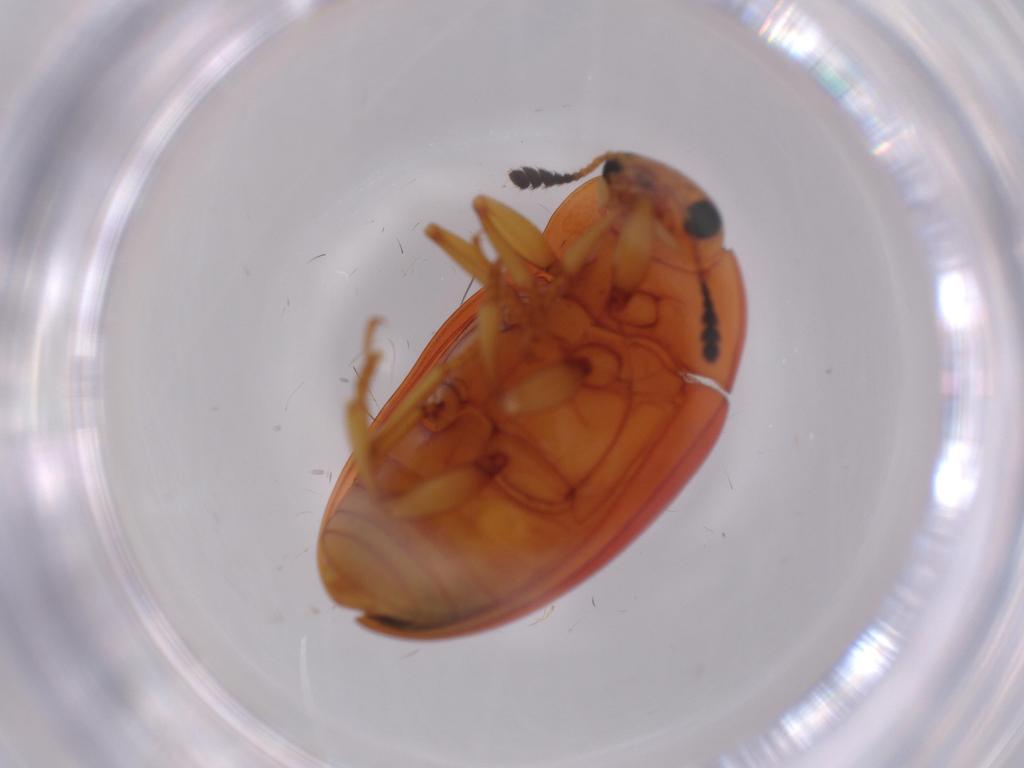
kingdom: Animalia
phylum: Arthropoda
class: Insecta
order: Coleoptera
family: Erotylidae
